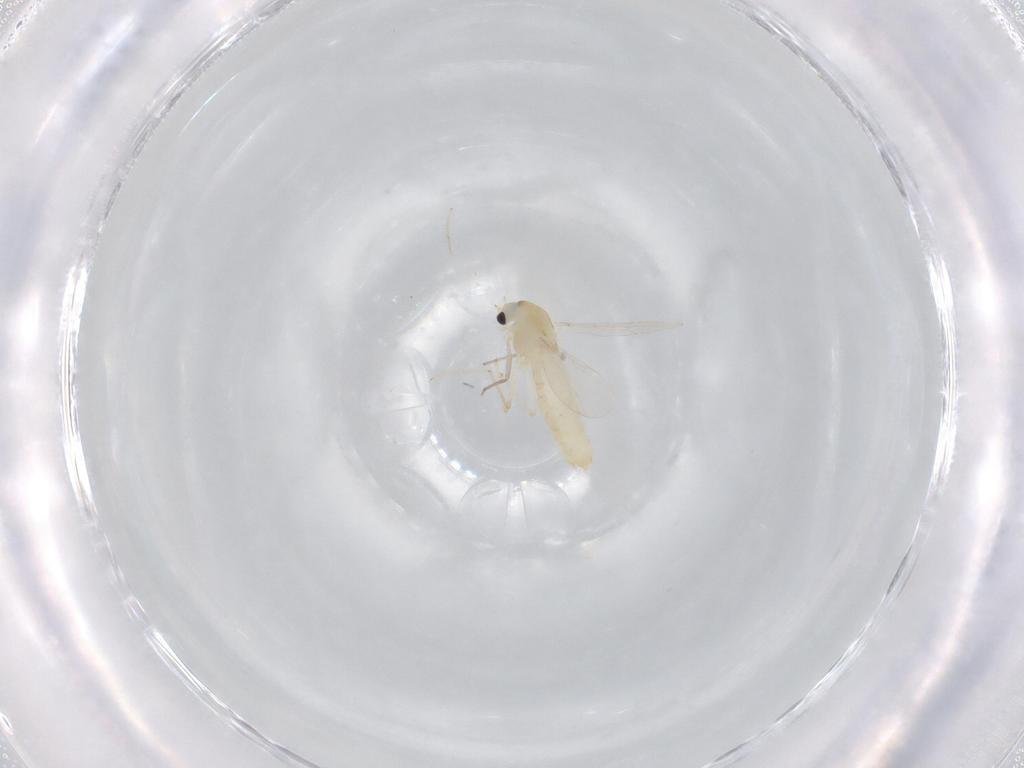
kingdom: Animalia
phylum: Arthropoda
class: Insecta
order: Diptera
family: Chironomidae
